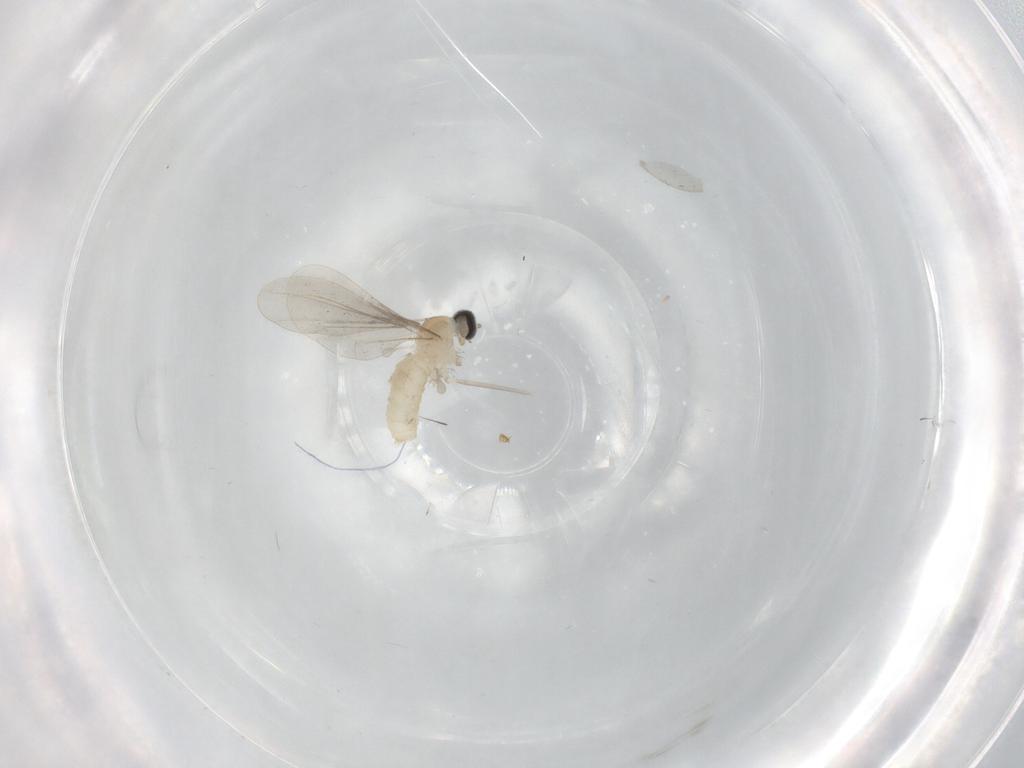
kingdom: Animalia
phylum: Arthropoda
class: Insecta
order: Diptera
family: Cecidomyiidae
